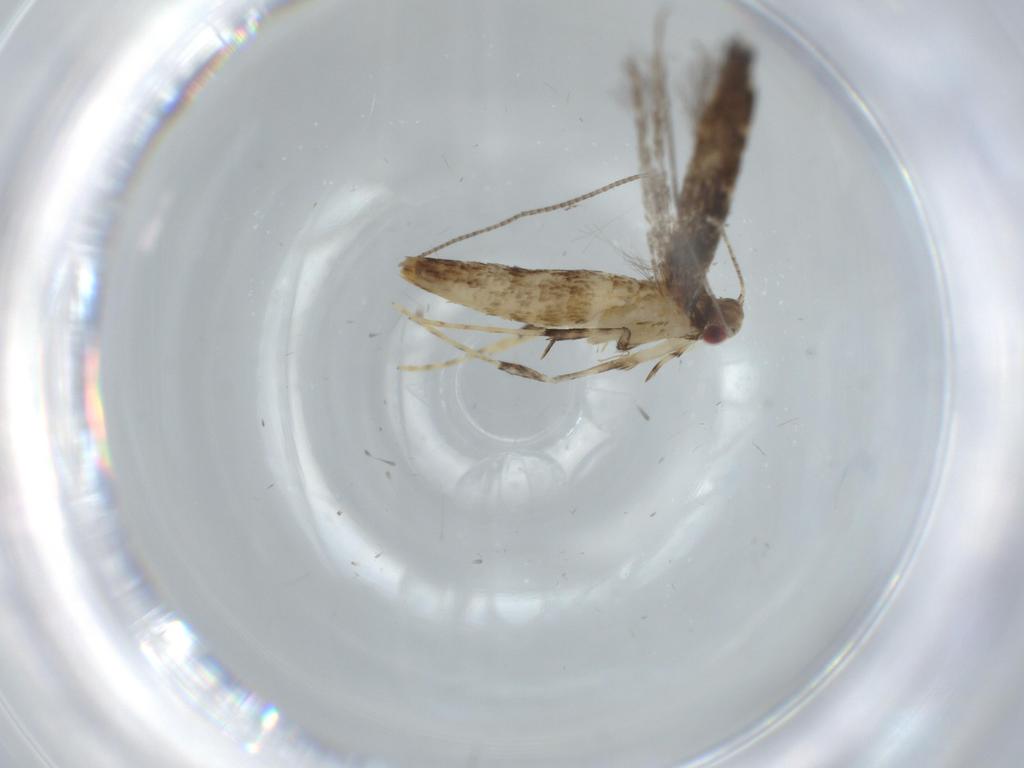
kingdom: Animalia
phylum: Arthropoda
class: Insecta
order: Lepidoptera
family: Gracillariidae
